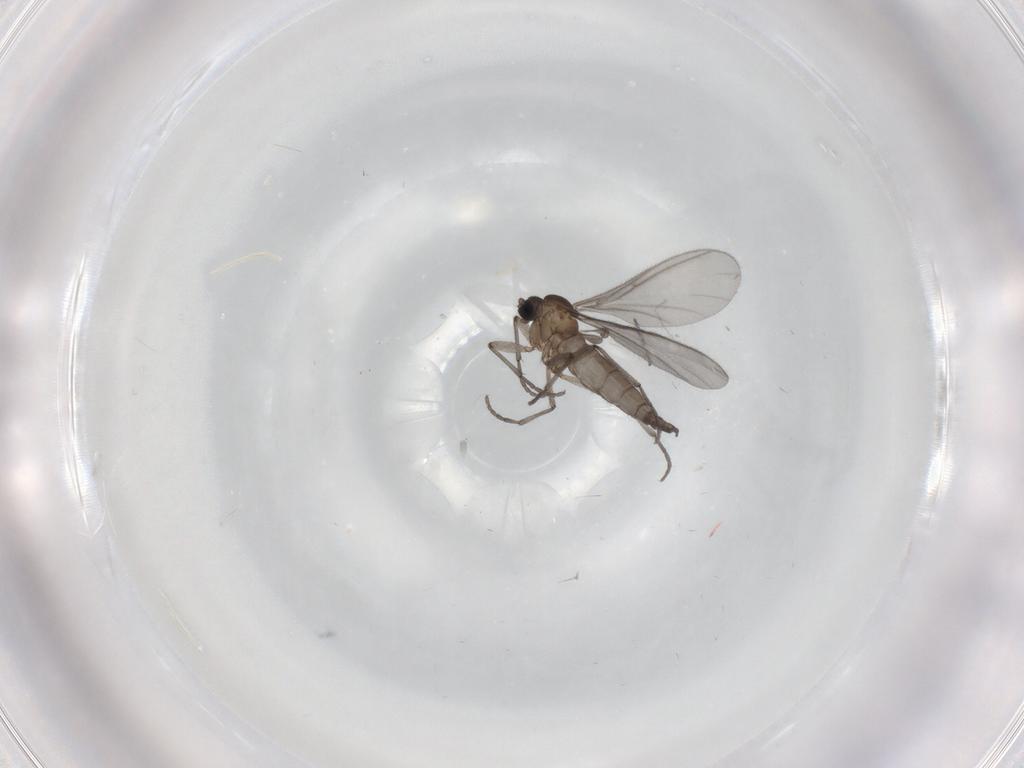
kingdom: Animalia
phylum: Arthropoda
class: Insecta
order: Diptera
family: Sciaridae
